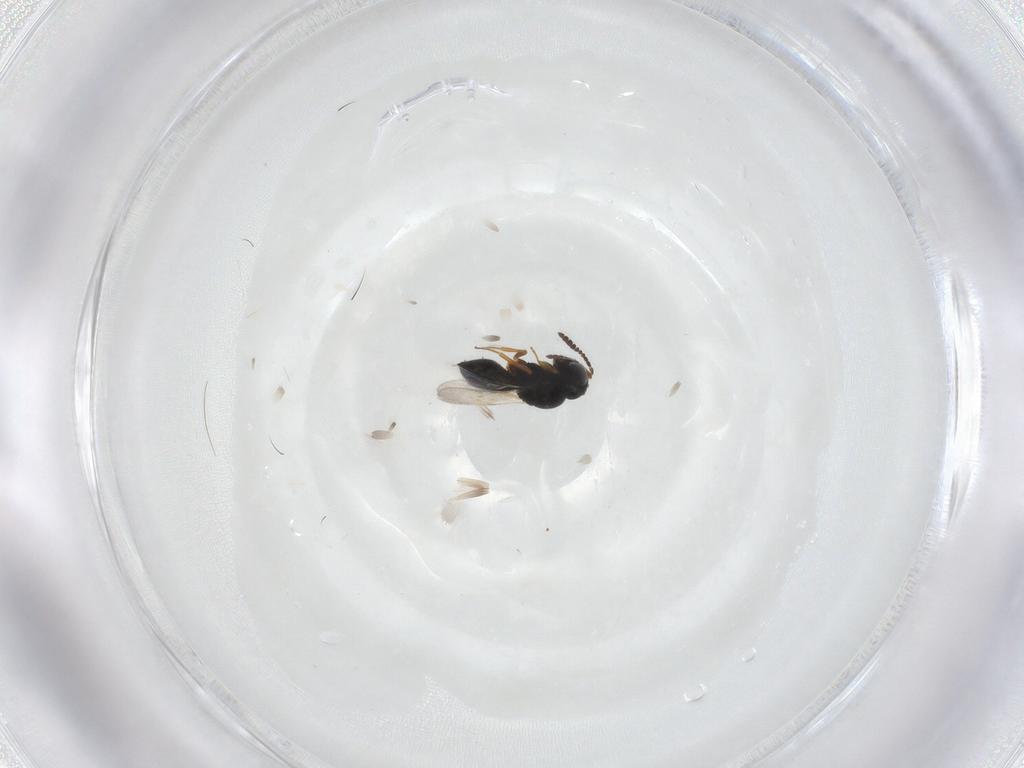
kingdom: Animalia
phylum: Arthropoda
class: Insecta
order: Hymenoptera
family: Scelionidae
